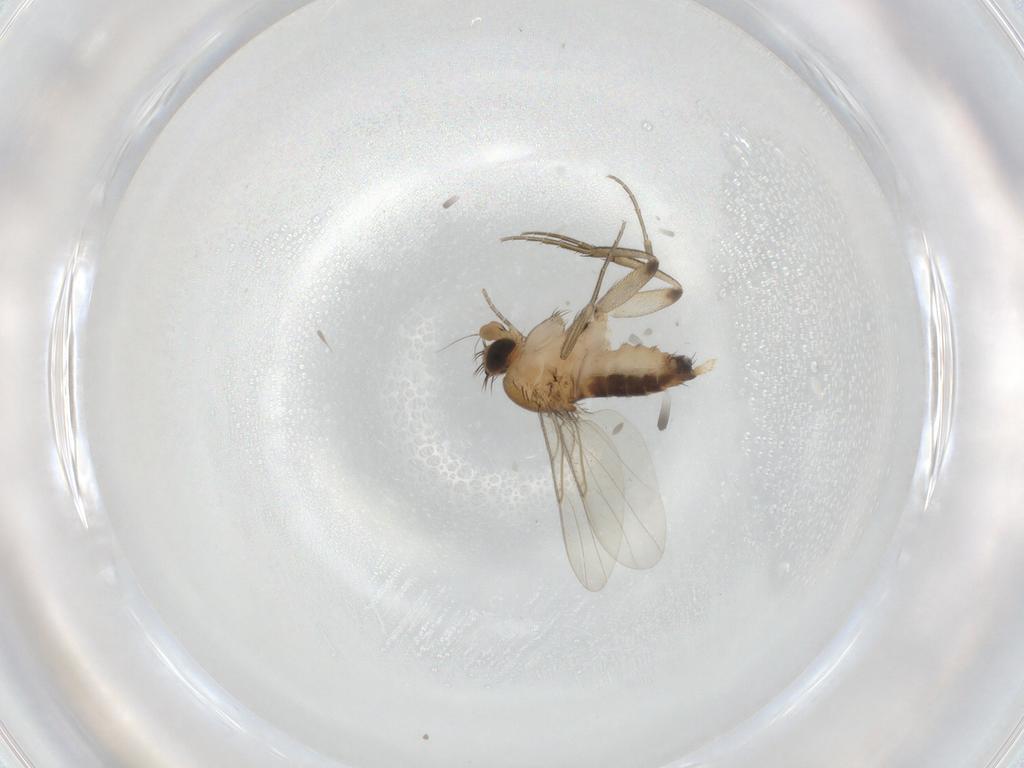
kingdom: Animalia
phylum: Arthropoda
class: Insecta
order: Diptera
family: Phoridae
